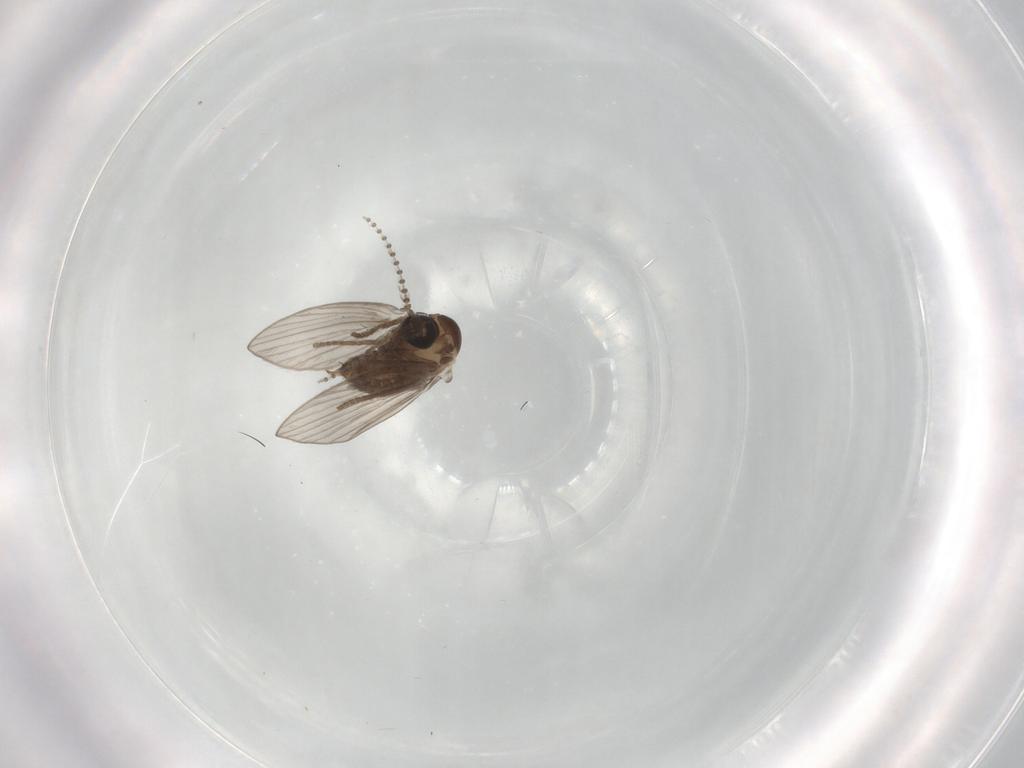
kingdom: Animalia
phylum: Arthropoda
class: Insecta
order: Diptera
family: Psychodidae
